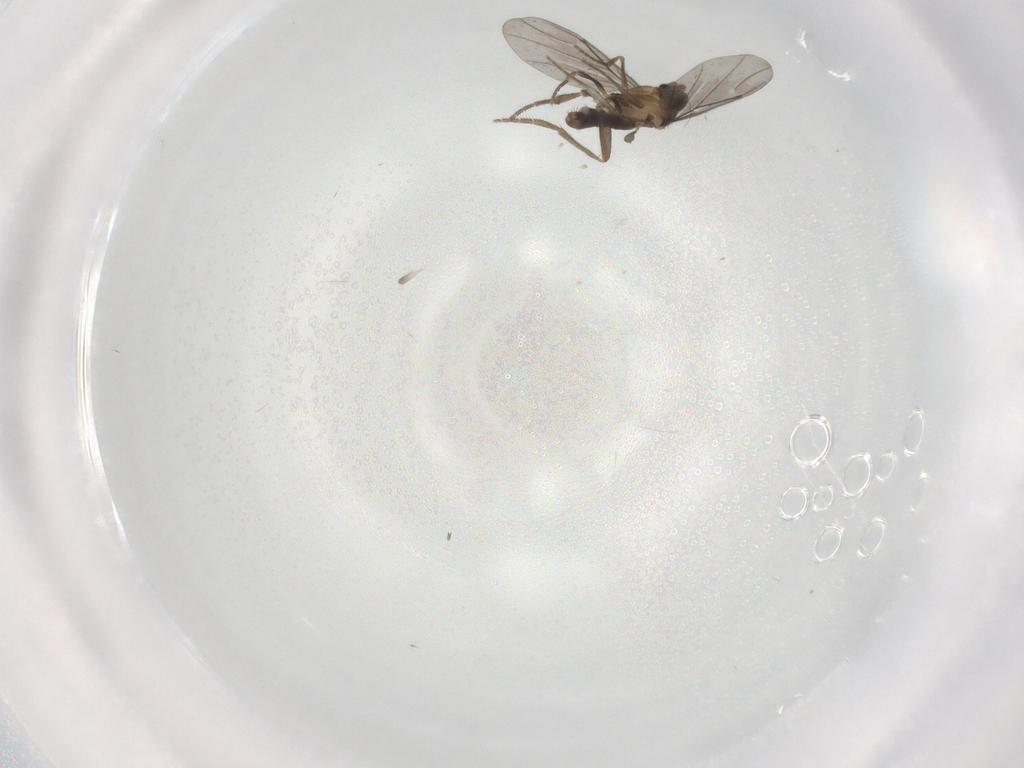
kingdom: Animalia
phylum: Arthropoda
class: Insecta
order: Diptera
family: Phoridae
